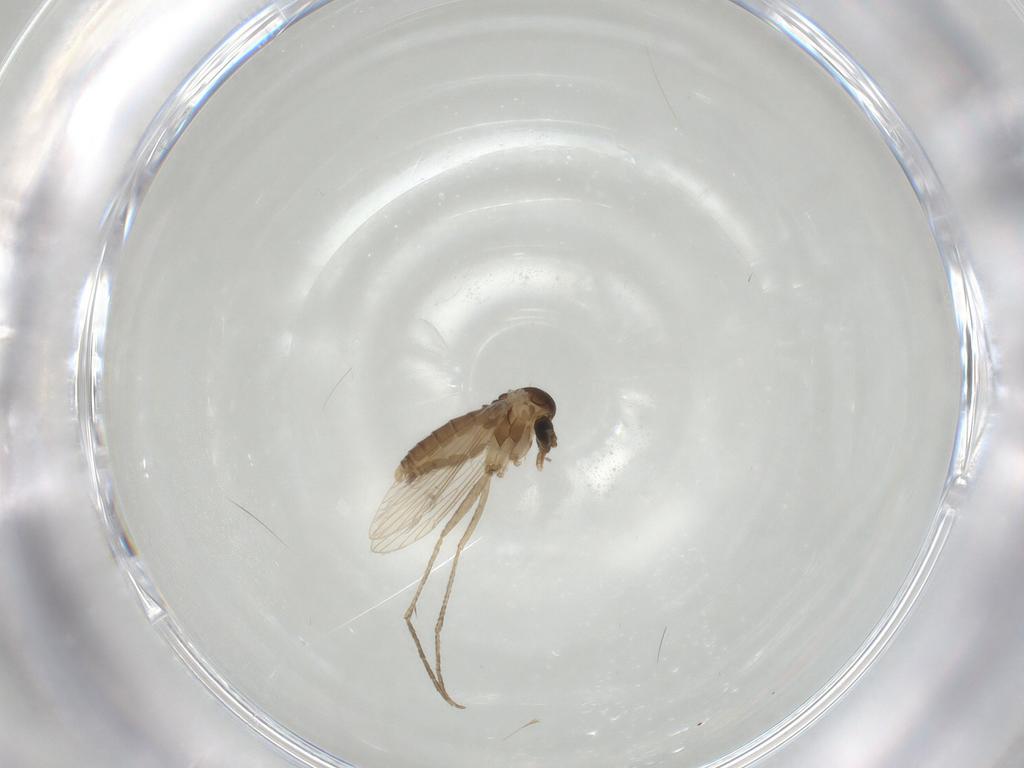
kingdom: Animalia
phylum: Arthropoda
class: Insecta
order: Diptera
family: Psychodidae
